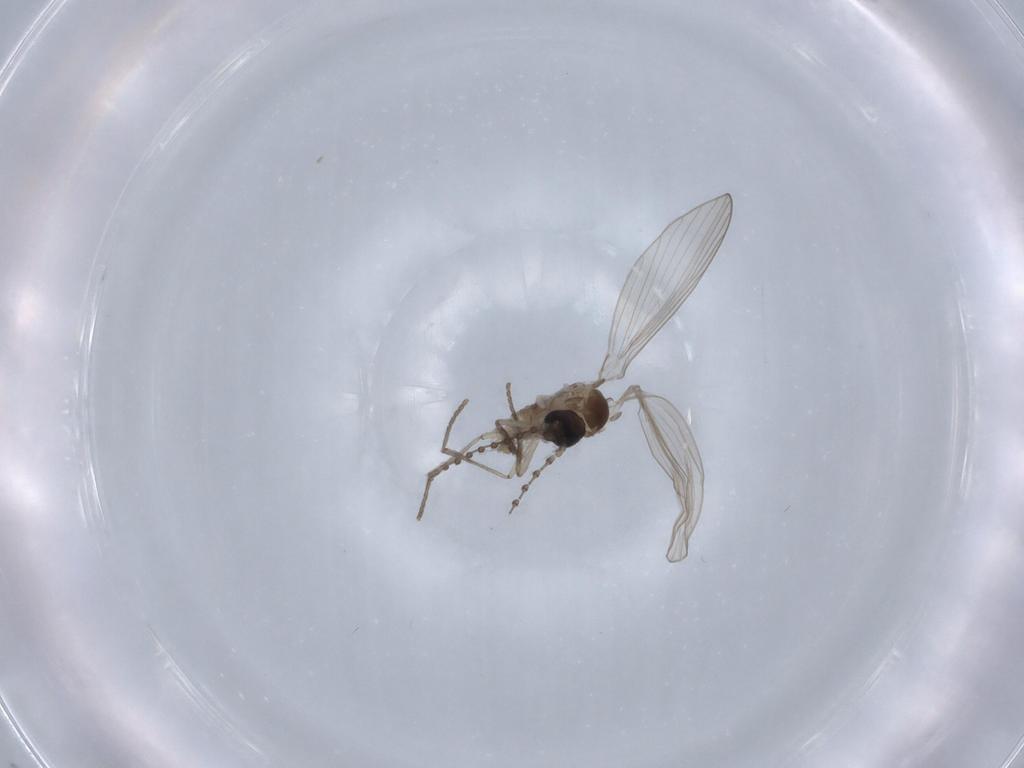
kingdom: Animalia
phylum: Arthropoda
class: Insecta
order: Diptera
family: Psychodidae
